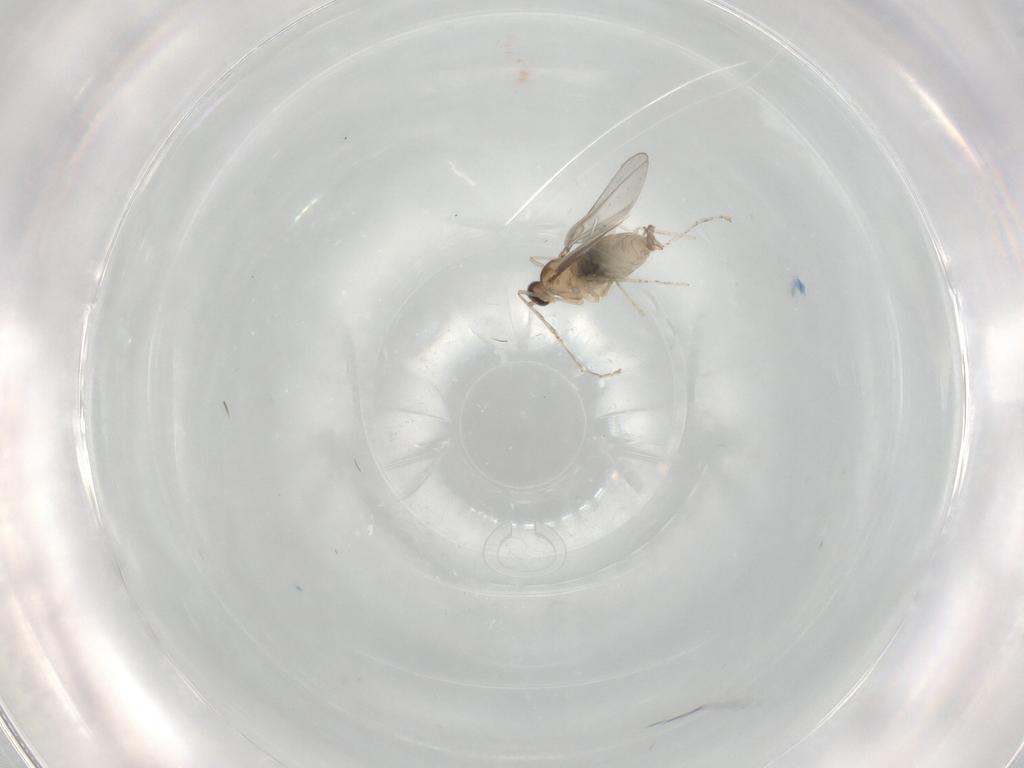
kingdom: Animalia
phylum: Arthropoda
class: Insecta
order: Diptera
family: Cecidomyiidae
